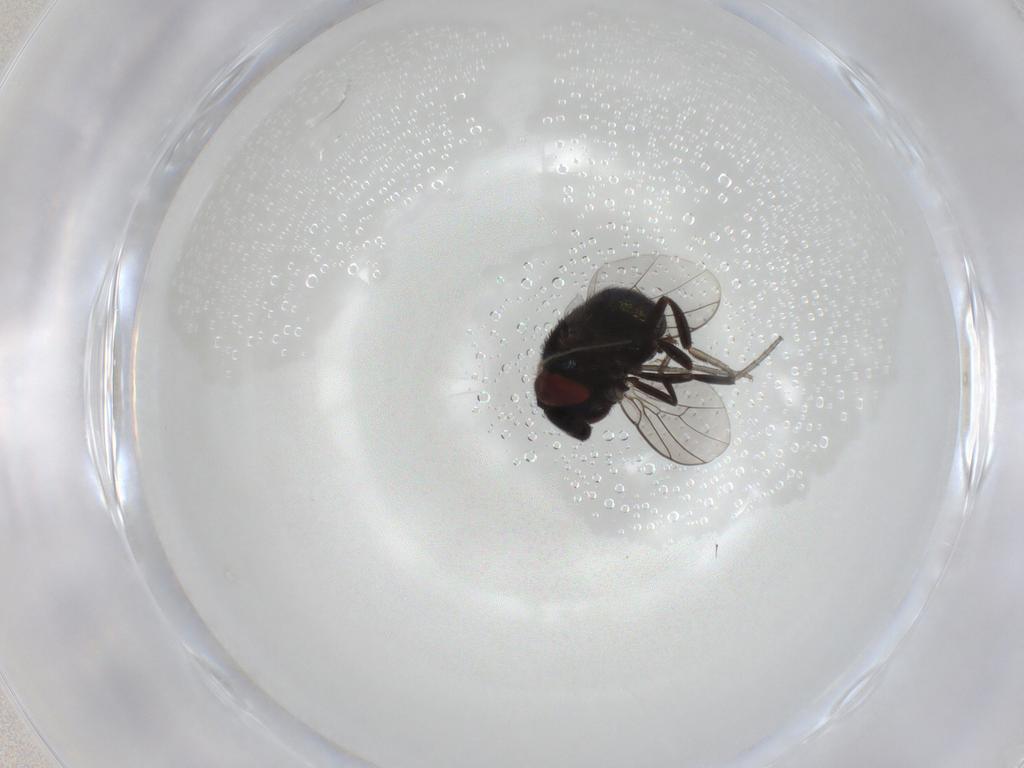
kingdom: Animalia
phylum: Arthropoda
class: Insecta
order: Diptera
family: Cryptochetidae
